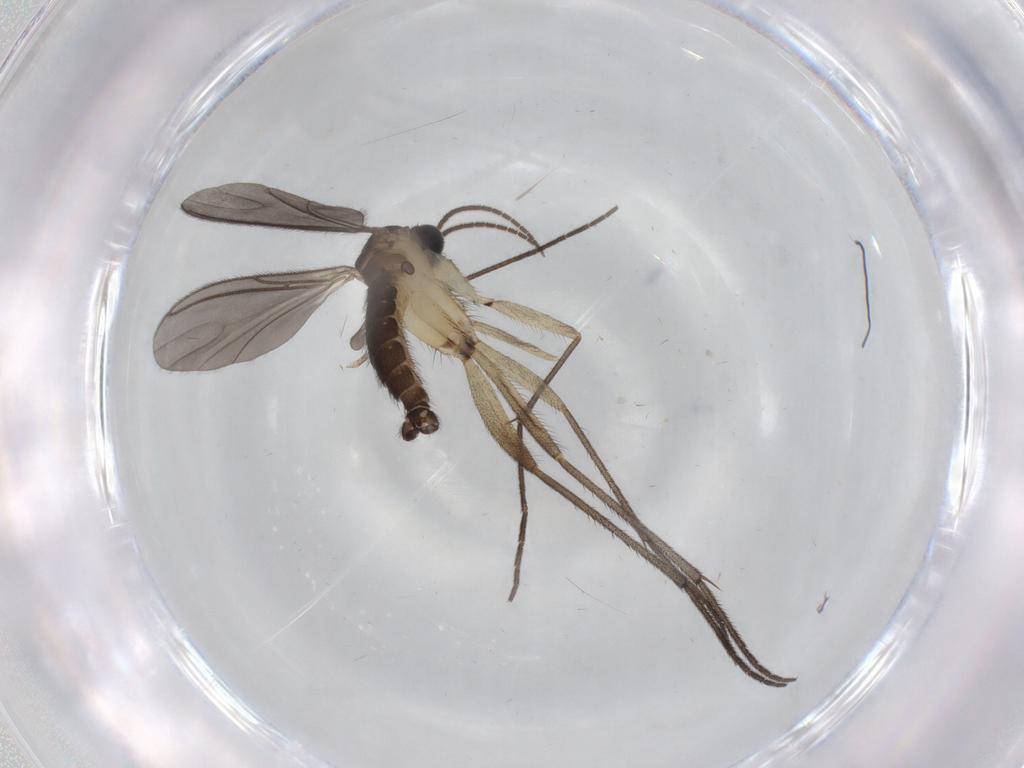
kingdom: Animalia
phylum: Arthropoda
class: Insecta
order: Diptera
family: Sciaridae
